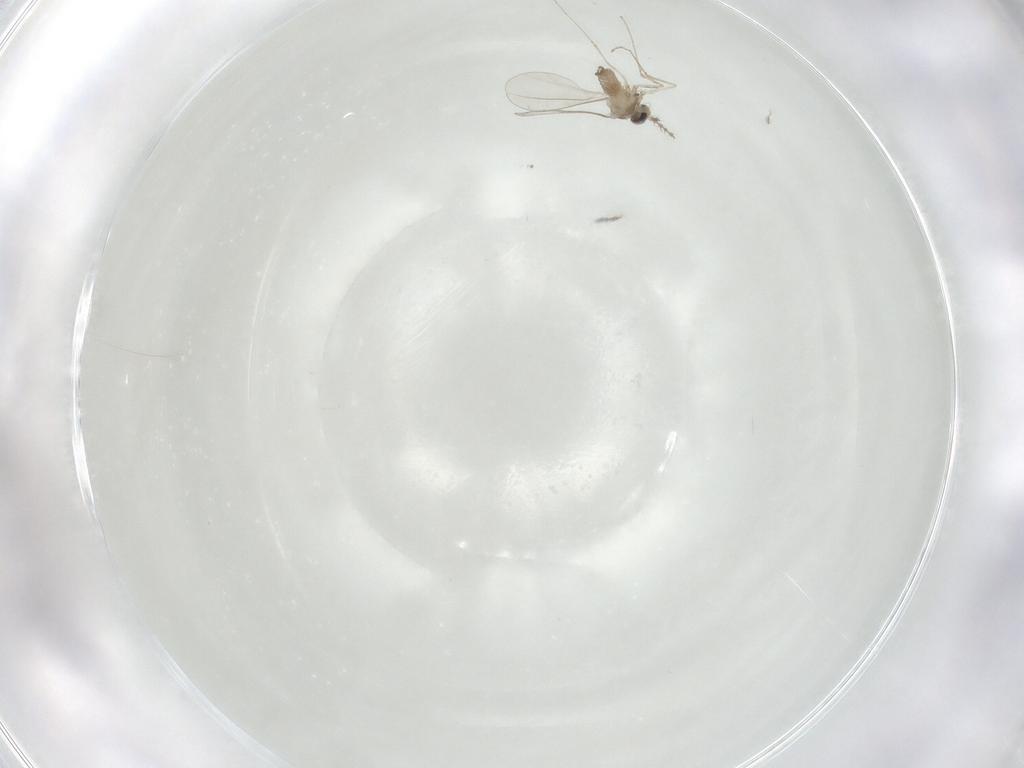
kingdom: Animalia
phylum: Arthropoda
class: Insecta
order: Diptera
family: Cecidomyiidae
